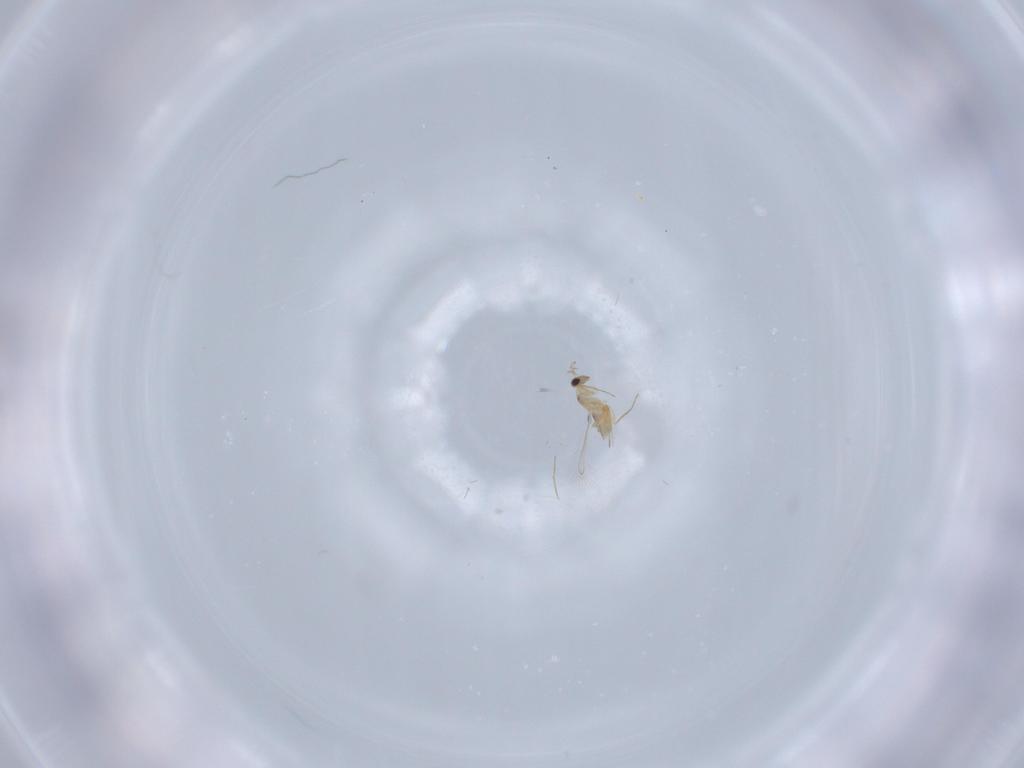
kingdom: Animalia
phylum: Arthropoda
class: Insecta
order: Hymenoptera
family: Mymaridae
